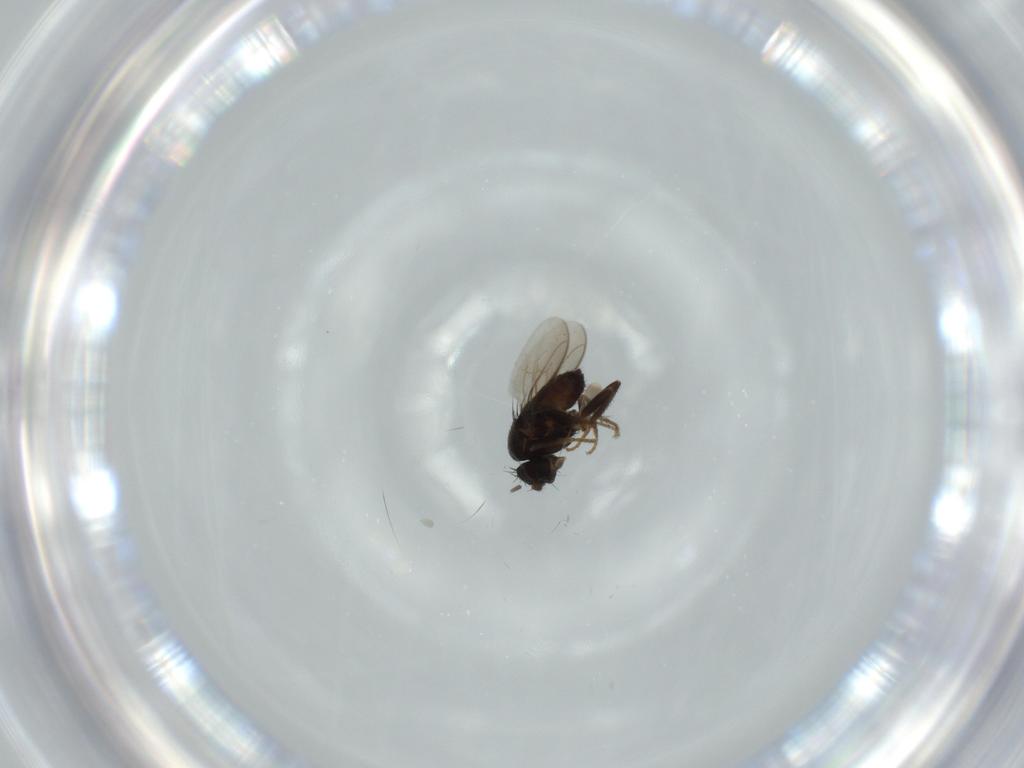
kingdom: Animalia
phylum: Arthropoda
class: Insecta
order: Diptera
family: Sphaeroceridae
